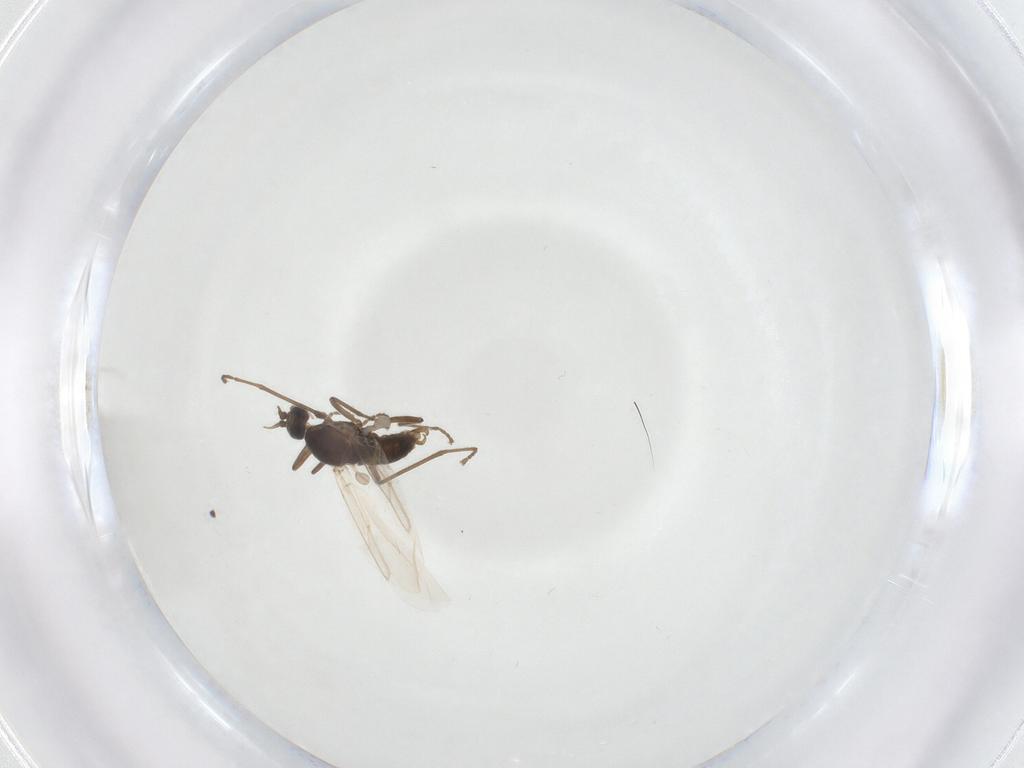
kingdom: Animalia
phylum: Arthropoda
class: Insecta
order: Diptera
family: Cecidomyiidae
